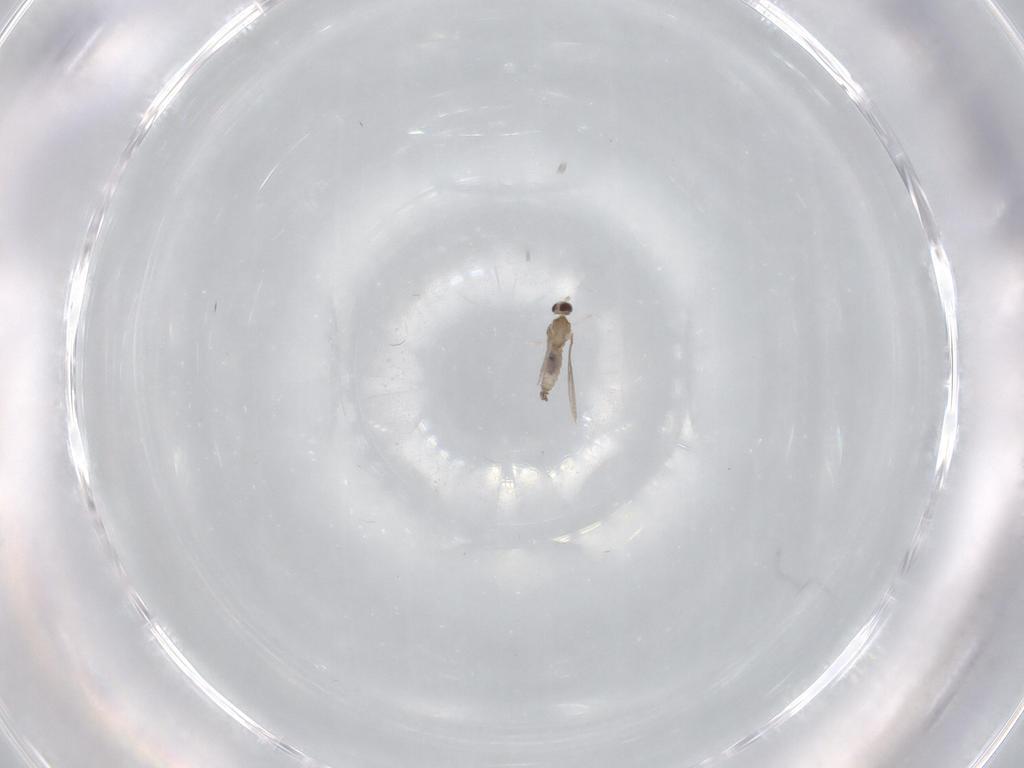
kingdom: Animalia
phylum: Arthropoda
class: Insecta
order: Diptera
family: Cecidomyiidae
